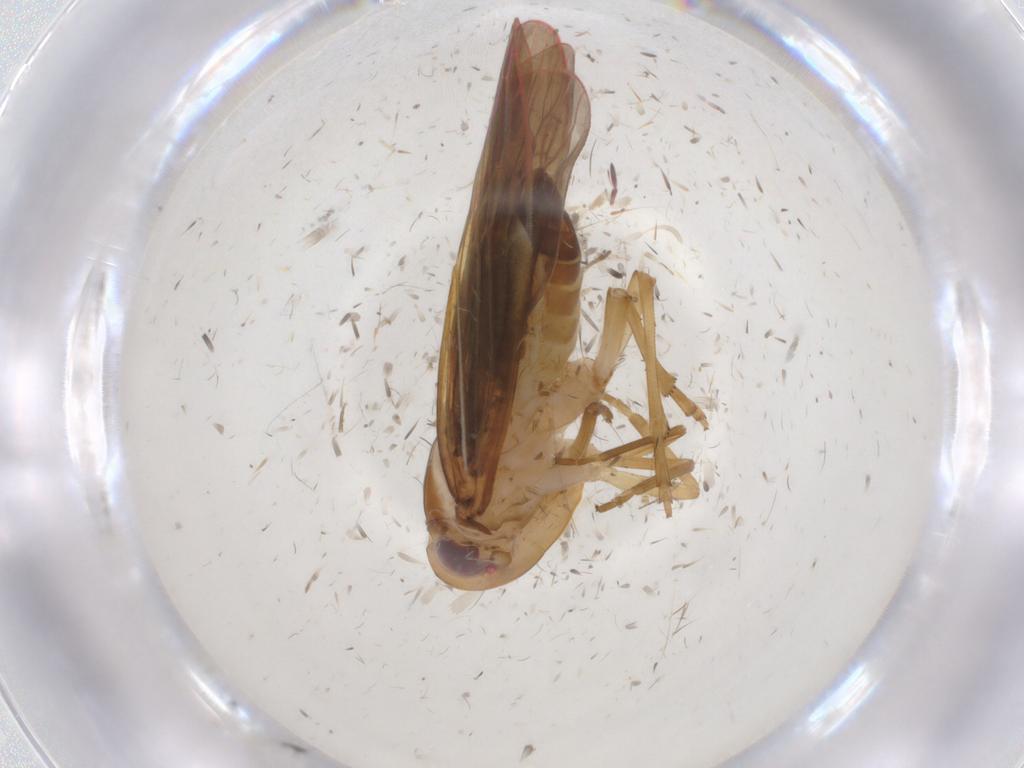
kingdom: Animalia
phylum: Arthropoda
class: Insecta
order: Hemiptera
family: Achilidae
